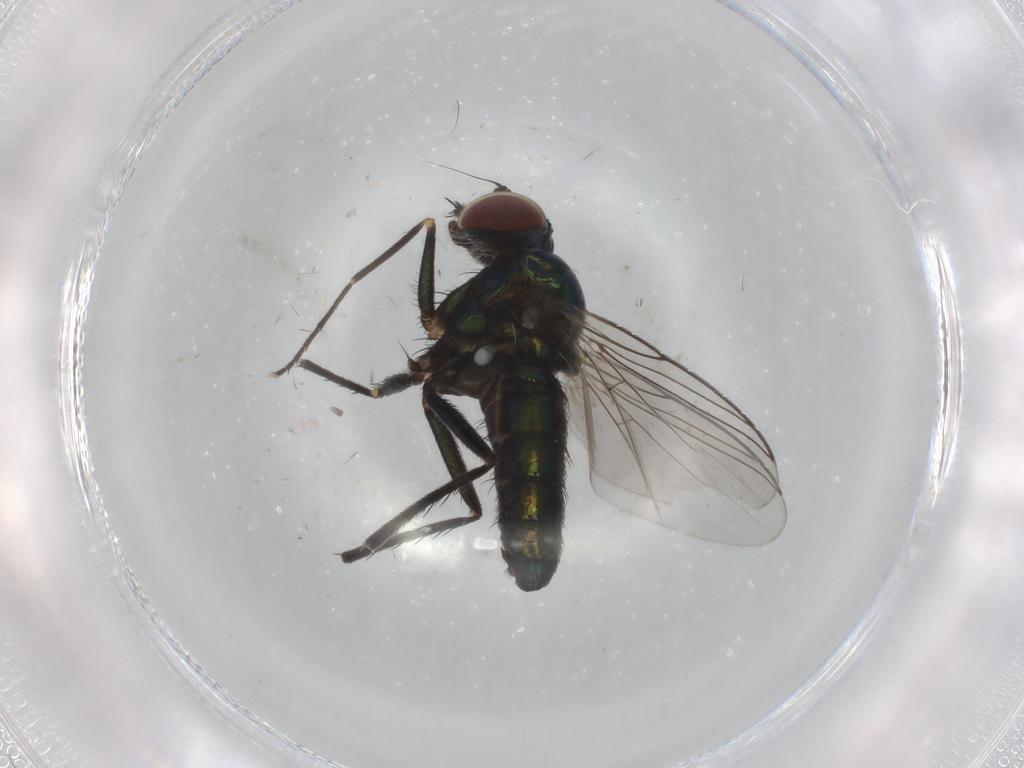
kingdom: Animalia
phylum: Arthropoda
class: Insecta
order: Diptera
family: Dolichopodidae
